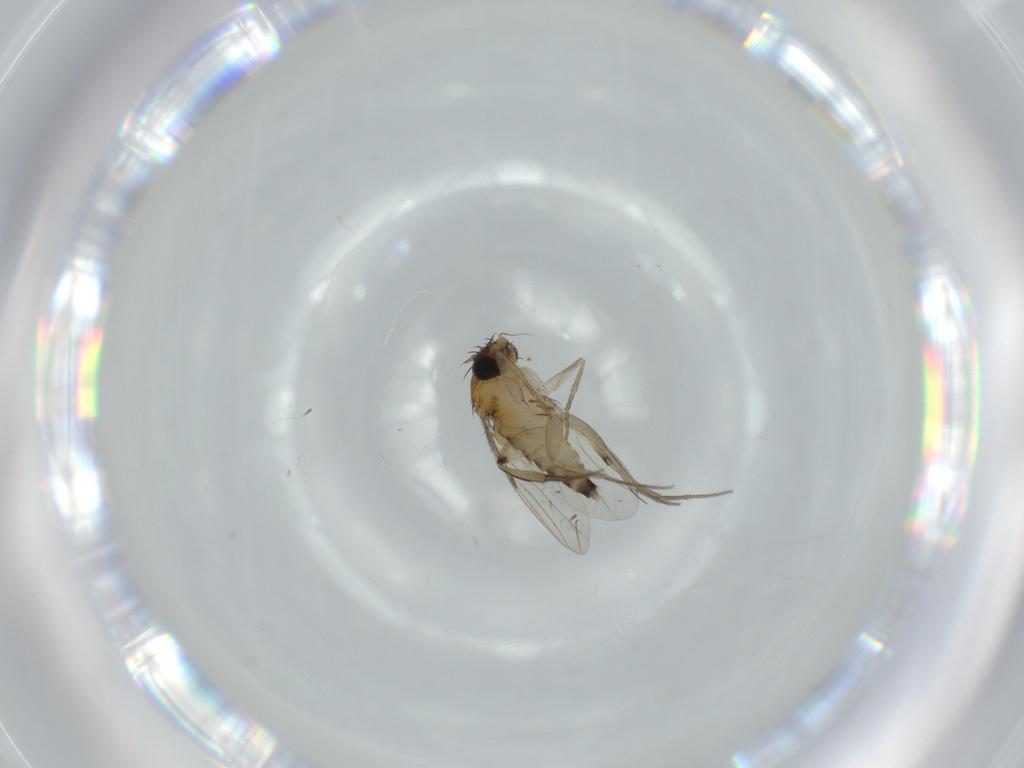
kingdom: Animalia
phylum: Arthropoda
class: Insecta
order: Diptera
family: Phoridae
